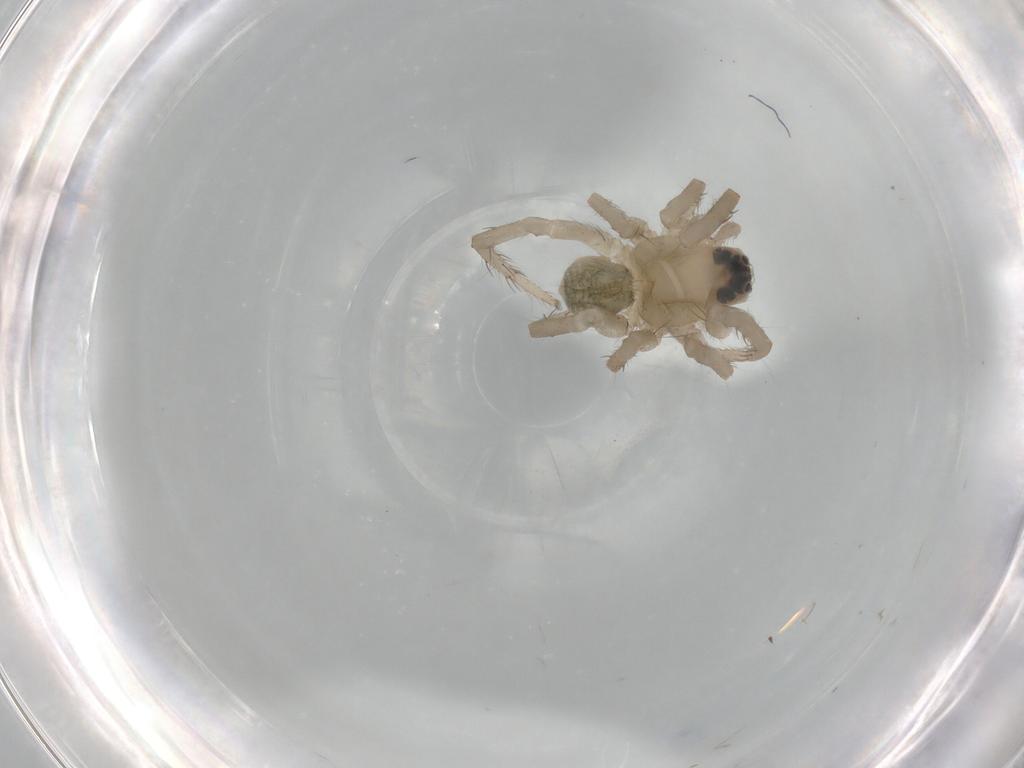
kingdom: Animalia
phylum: Arthropoda
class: Arachnida
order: Araneae
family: Lycosidae
